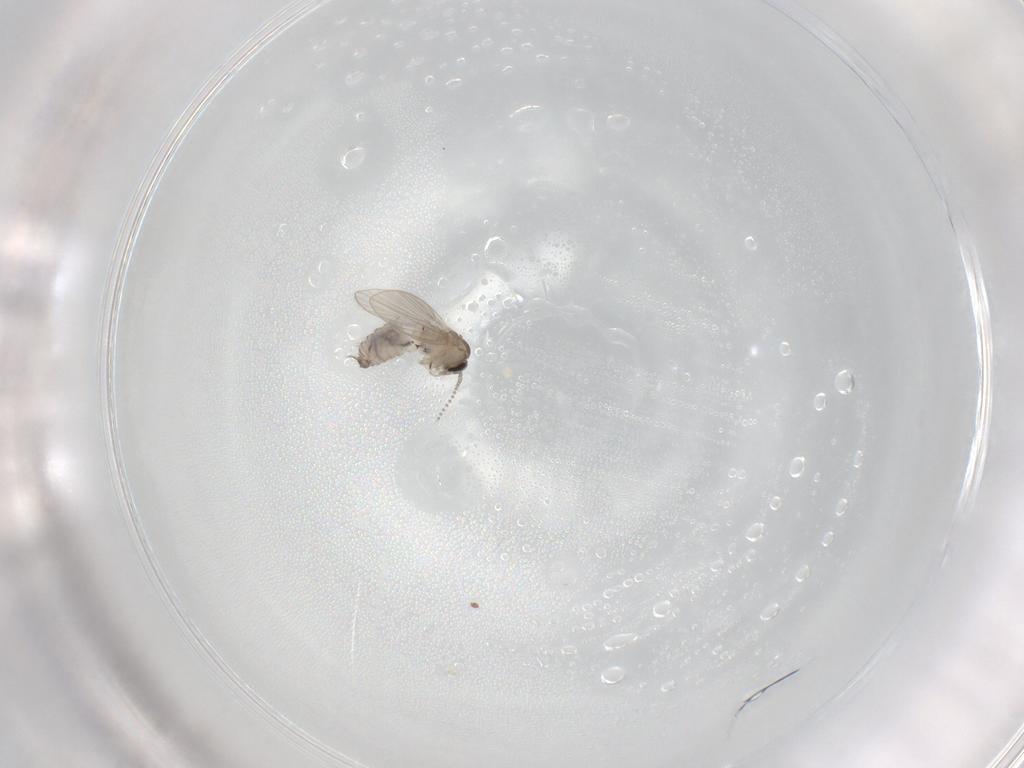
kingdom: Animalia
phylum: Arthropoda
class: Insecta
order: Diptera
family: Psychodidae
